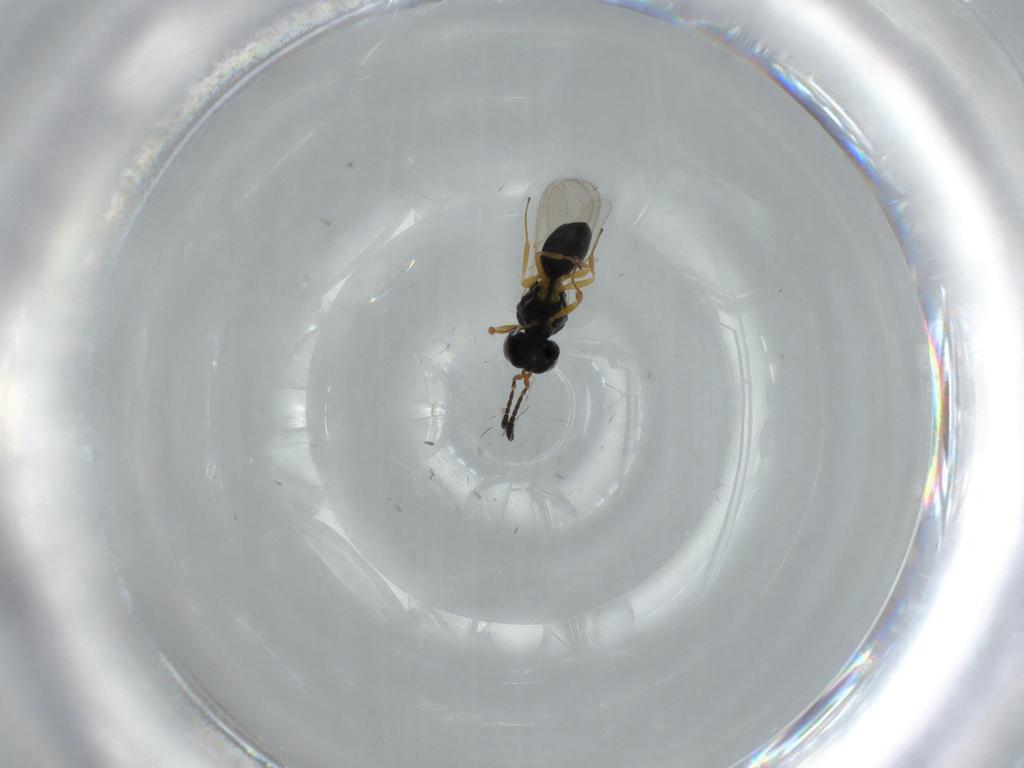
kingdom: Animalia
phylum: Arthropoda
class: Insecta
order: Hymenoptera
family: Scelionidae
